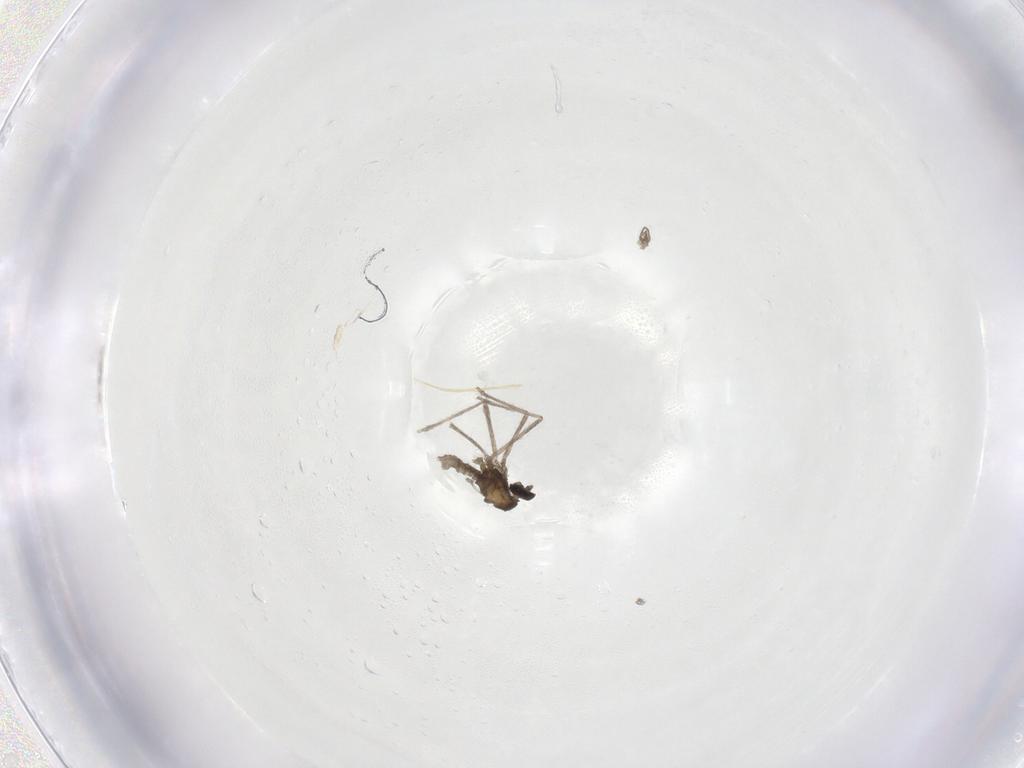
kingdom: Animalia
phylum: Arthropoda
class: Insecta
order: Diptera
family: Cecidomyiidae
